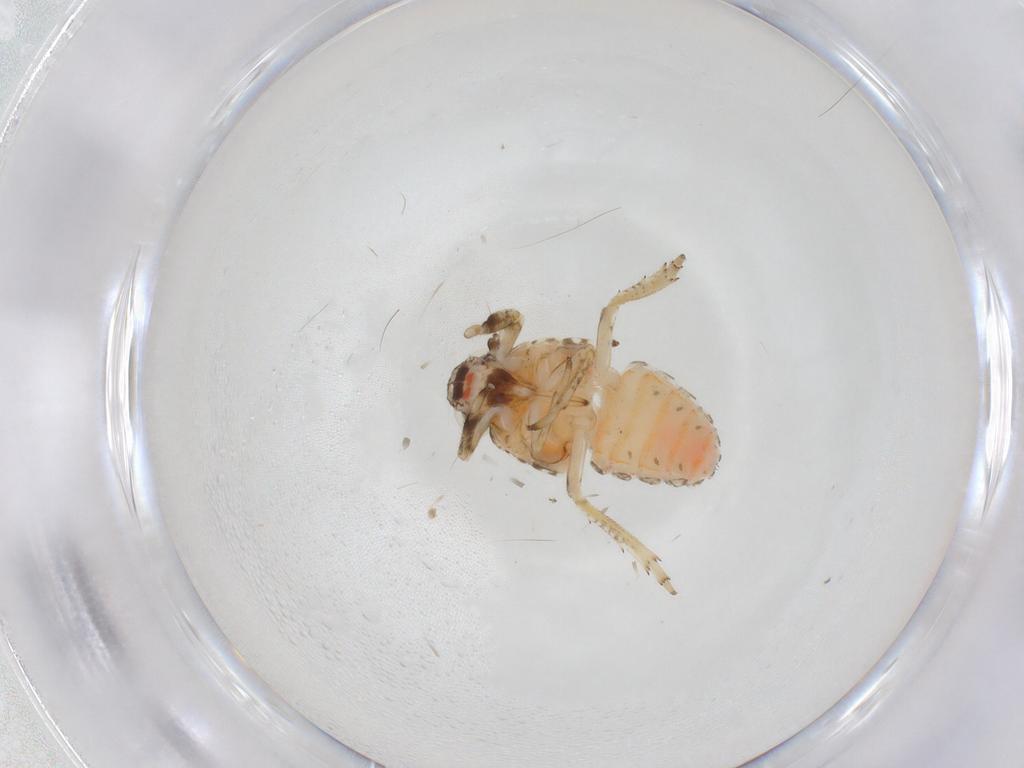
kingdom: Animalia
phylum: Arthropoda
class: Insecta
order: Hemiptera
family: Issidae
